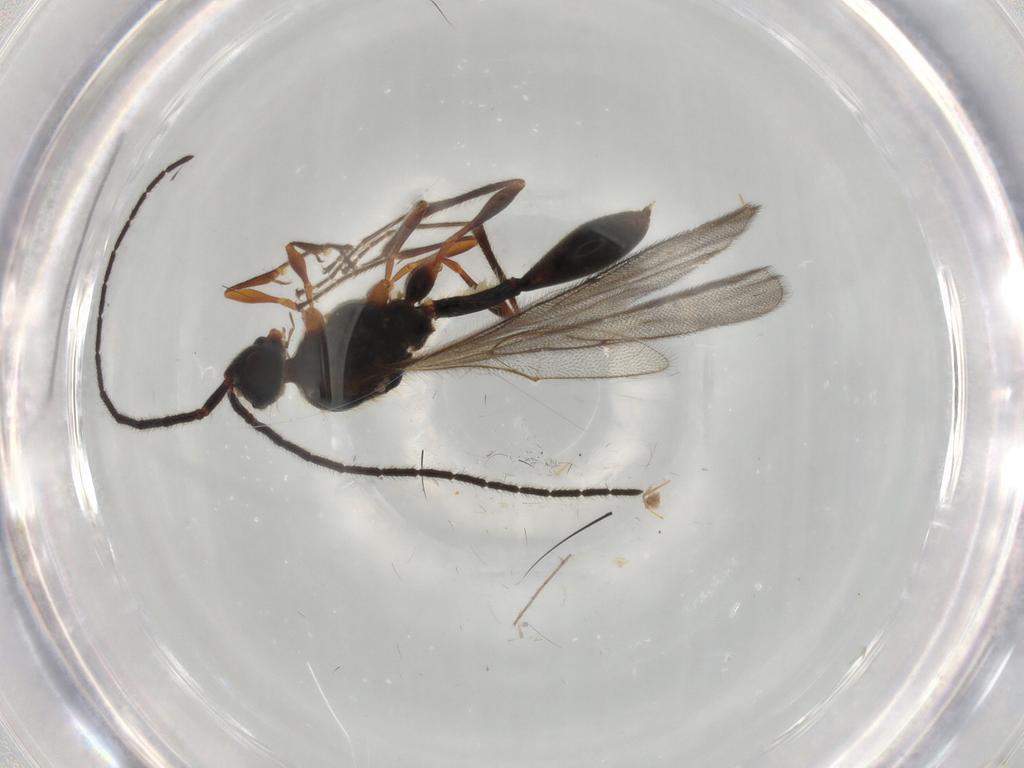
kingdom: Animalia
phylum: Arthropoda
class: Insecta
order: Hymenoptera
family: Diapriidae
